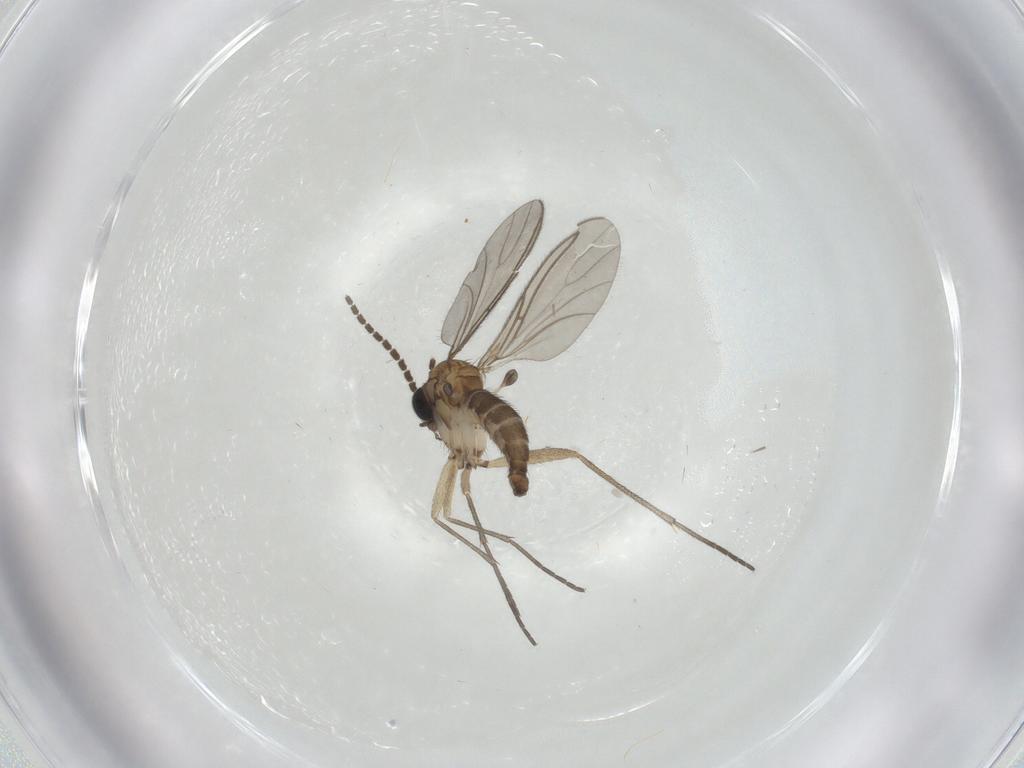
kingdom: Animalia
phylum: Arthropoda
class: Insecta
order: Diptera
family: Sciaridae
